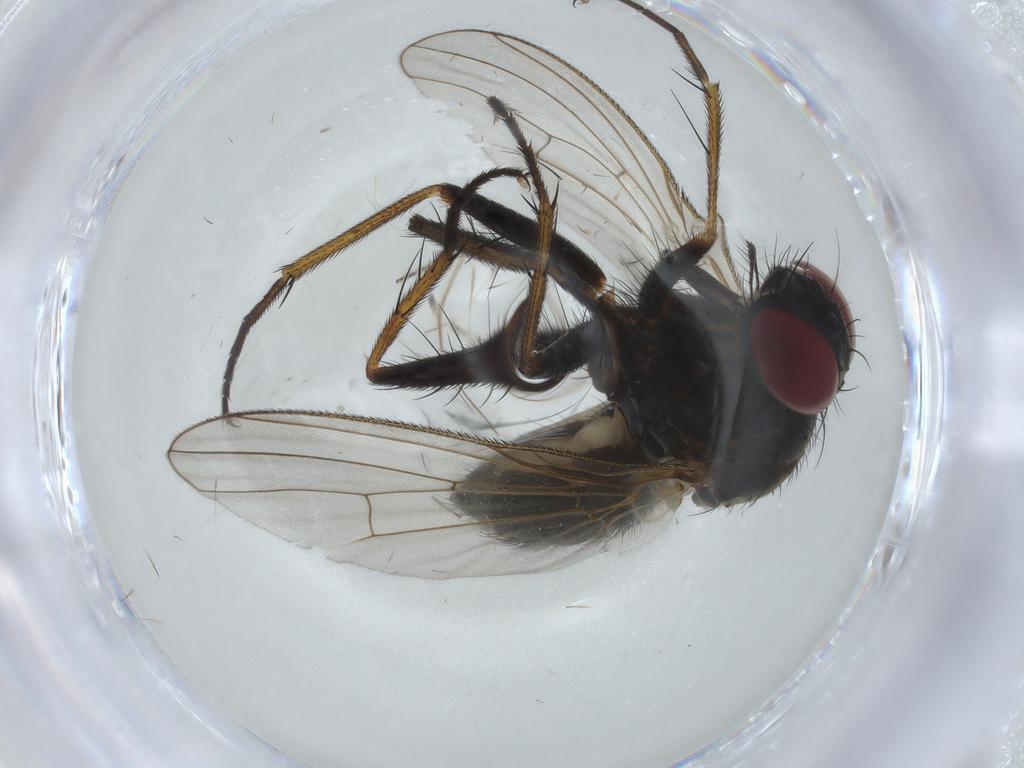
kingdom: Animalia
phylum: Arthropoda
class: Insecta
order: Diptera
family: Muscidae
